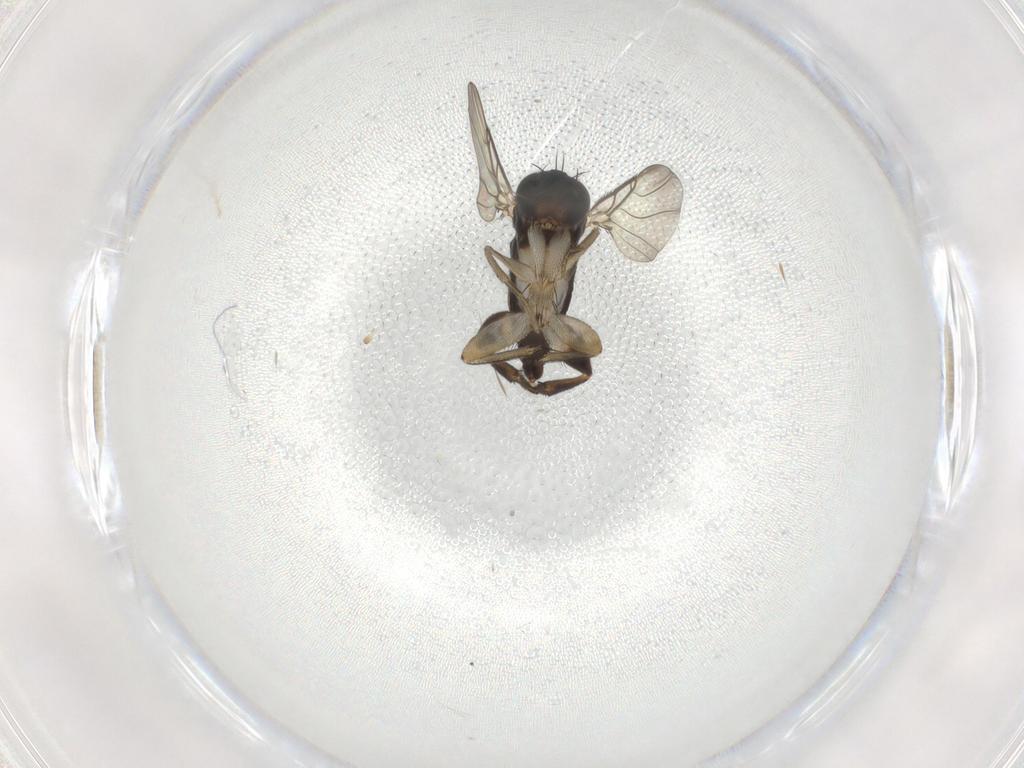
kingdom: Animalia
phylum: Arthropoda
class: Insecta
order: Diptera
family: Phoridae
